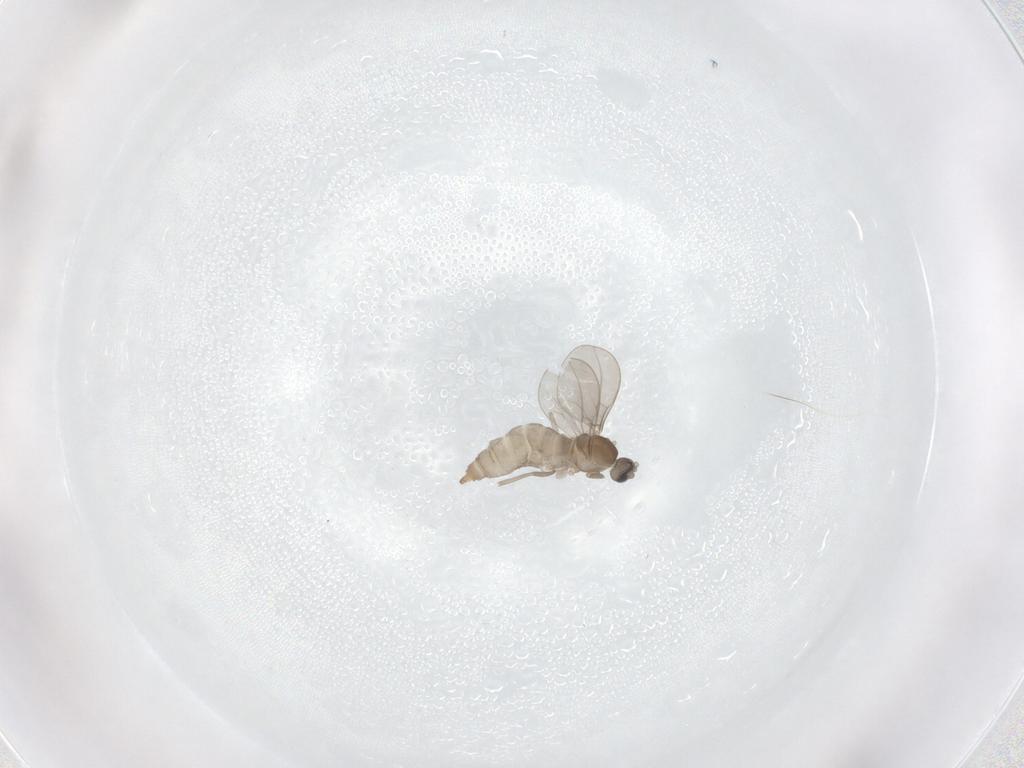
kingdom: Animalia
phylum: Arthropoda
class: Insecta
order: Diptera
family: Cecidomyiidae
